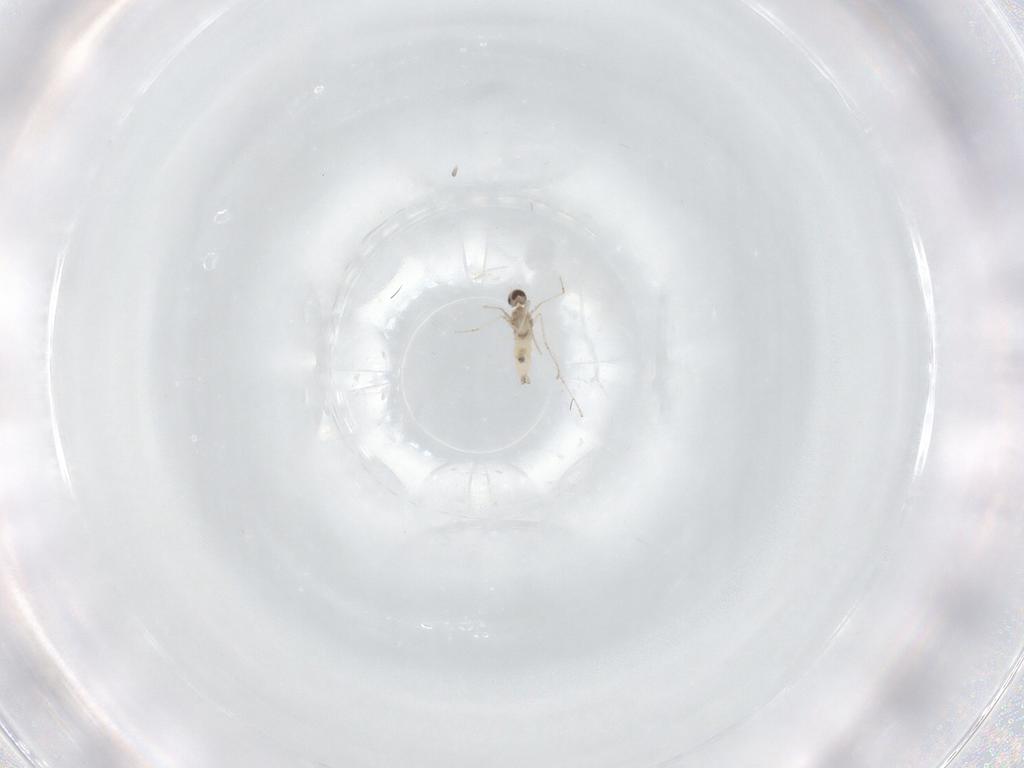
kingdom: Animalia
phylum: Arthropoda
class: Insecta
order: Diptera
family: Cecidomyiidae
